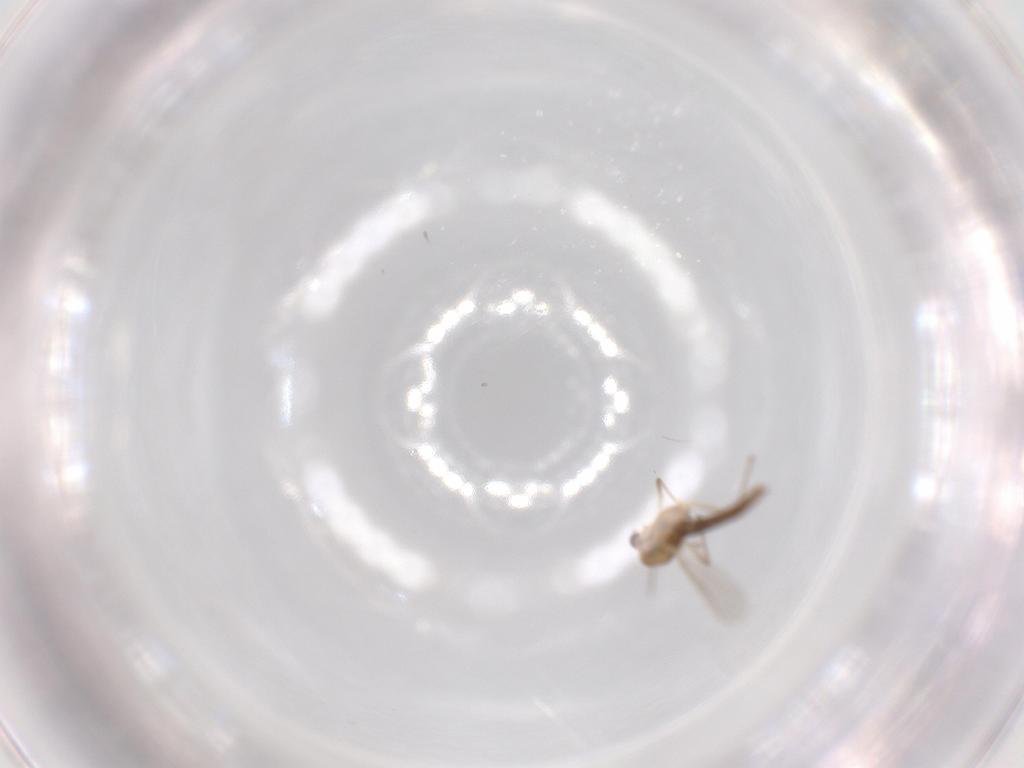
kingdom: Animalia
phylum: Arthropoda
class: Insecta
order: Diptera
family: Chironomidae
